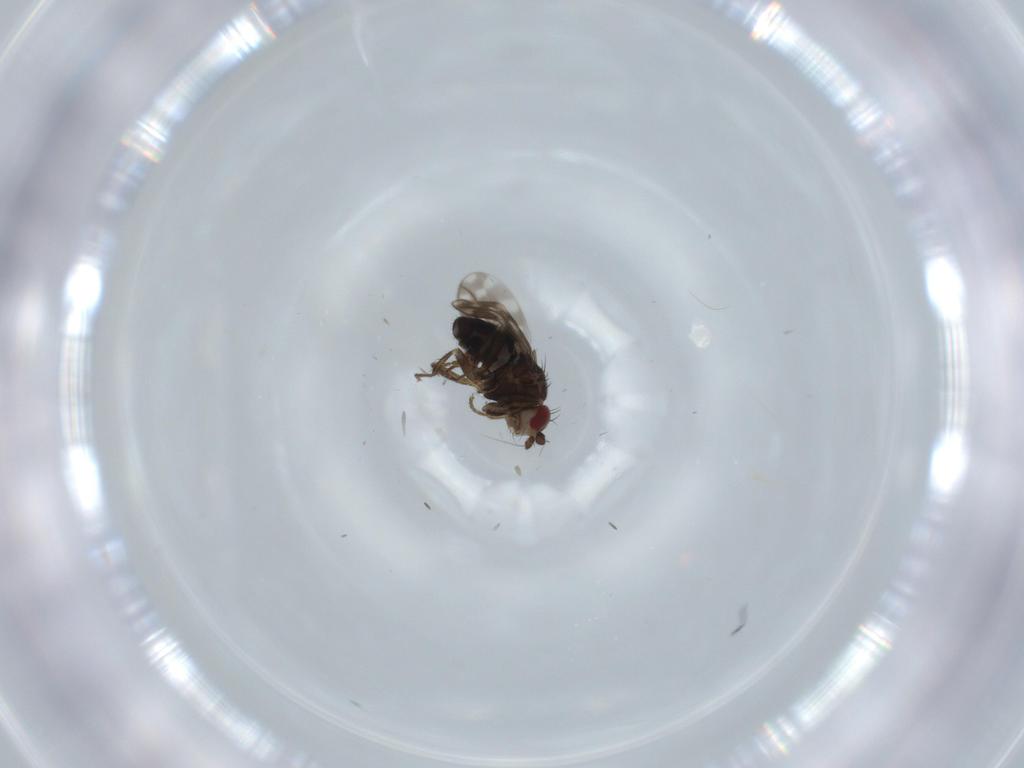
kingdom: Animalia
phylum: Arthropoda
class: Insecta
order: Diptera
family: Sphaeroceridae
